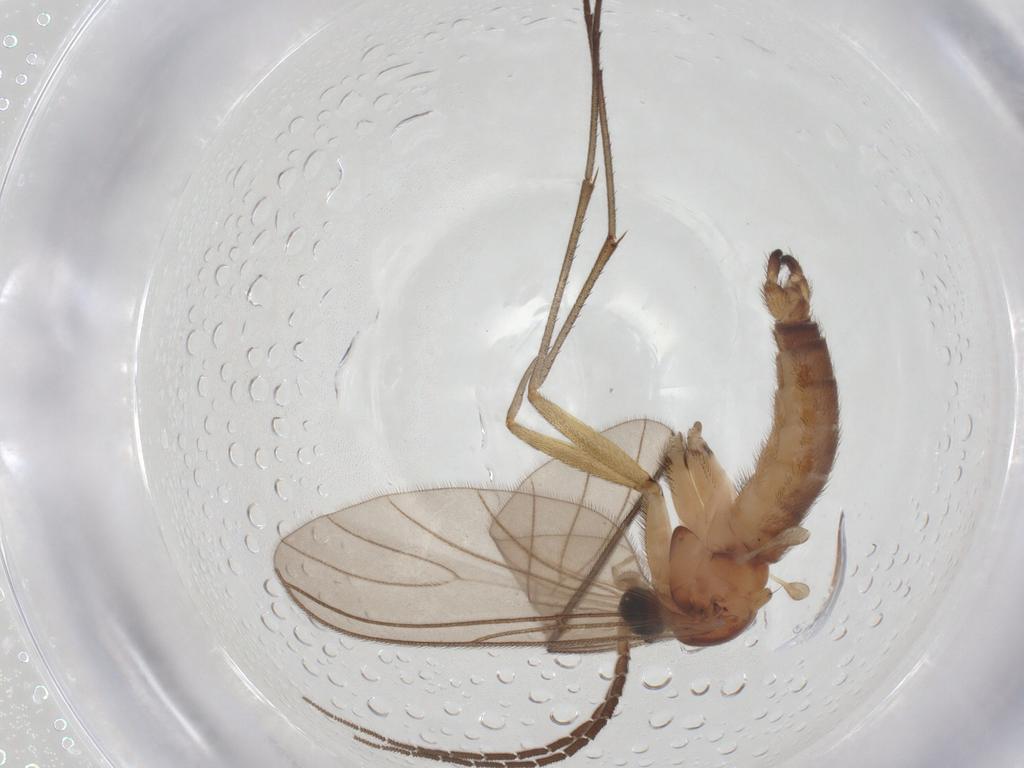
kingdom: Animalia
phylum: Arthropoda
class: Insecta
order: Diptera
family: Sciaridae
